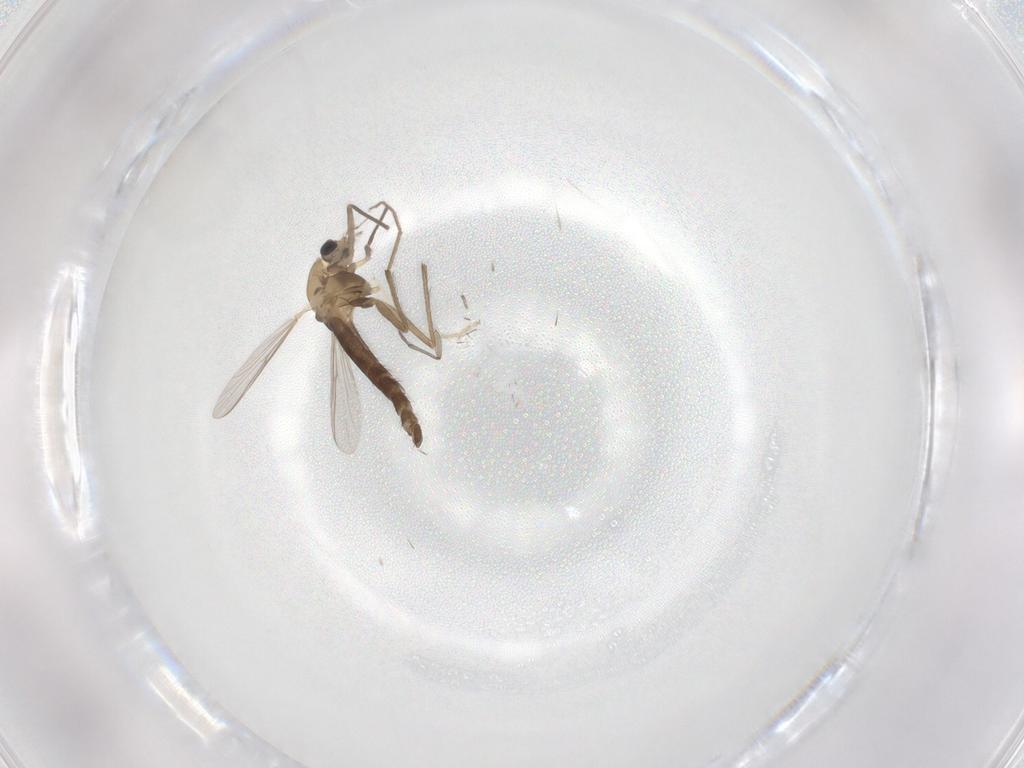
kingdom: Animalia
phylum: Arthropoda
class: Insecta
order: Diptera
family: Chironomidae
